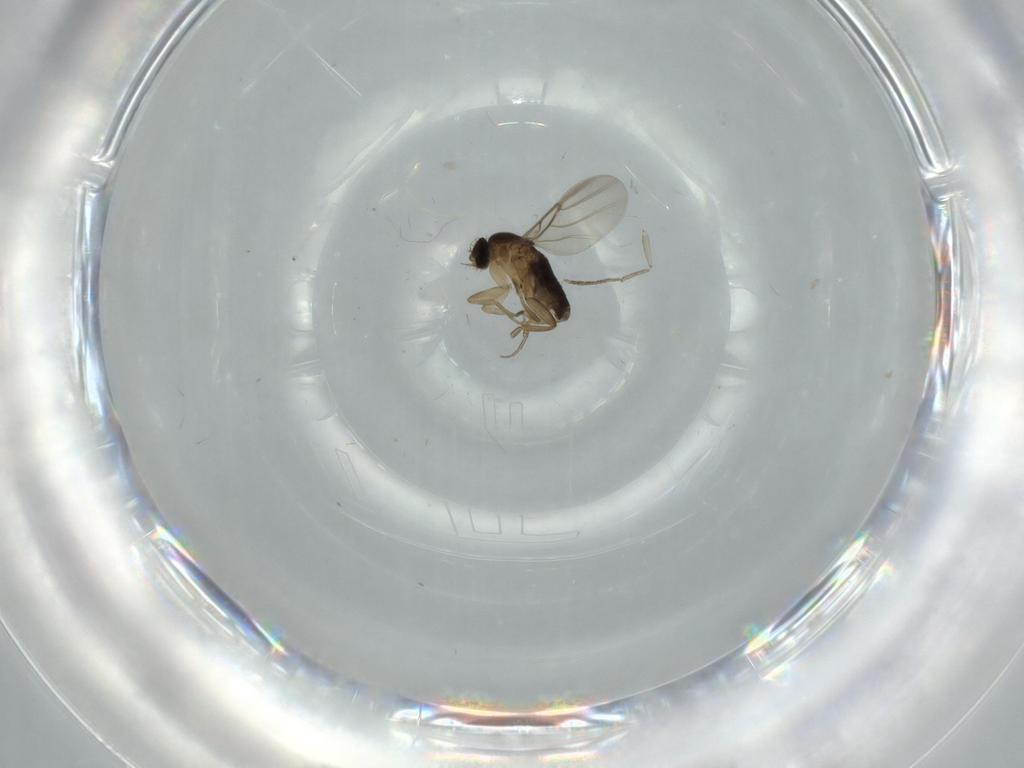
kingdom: Animalia
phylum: Arthropoda
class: Insecta
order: Diptera
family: Phoridae
